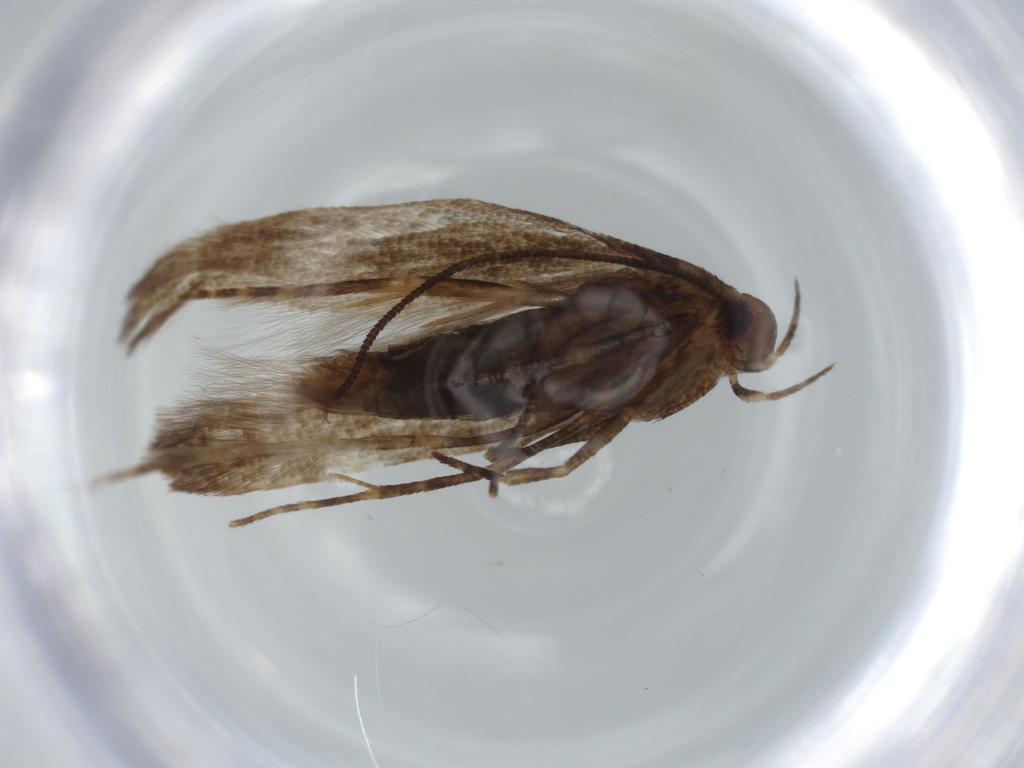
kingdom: Animalia
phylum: Arthropoda
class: Insecta
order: Lepidoptera
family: Momphidae
